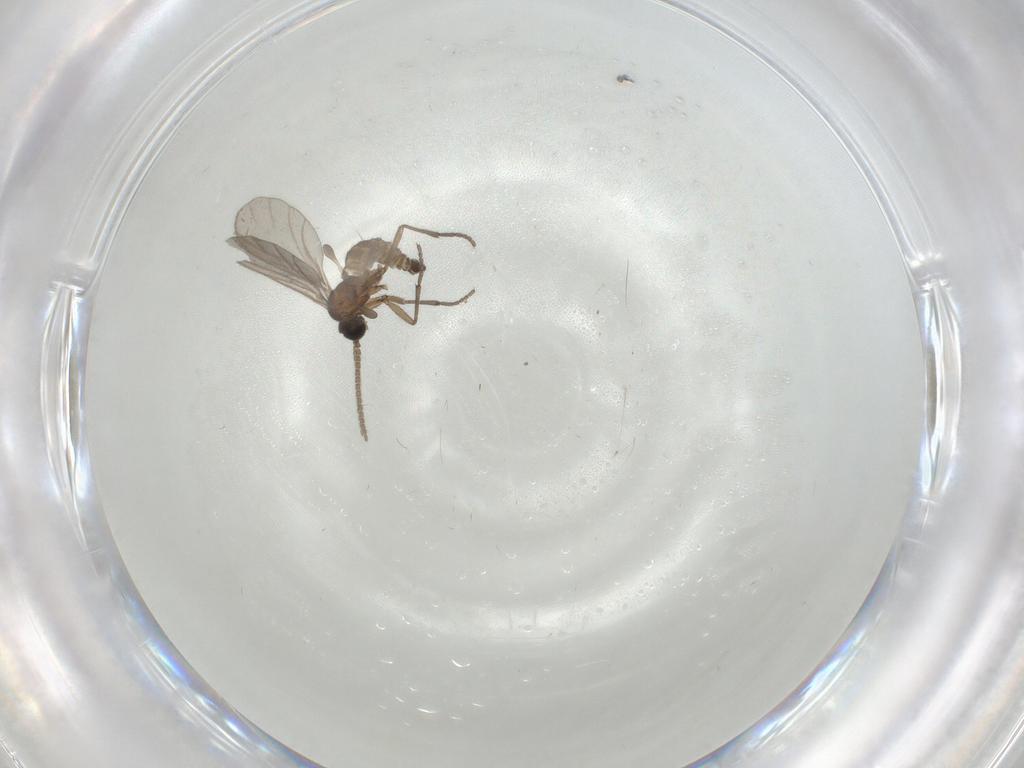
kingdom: Animalia
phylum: Arthropoda
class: Insecta
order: Diptera
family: Sciaridae
